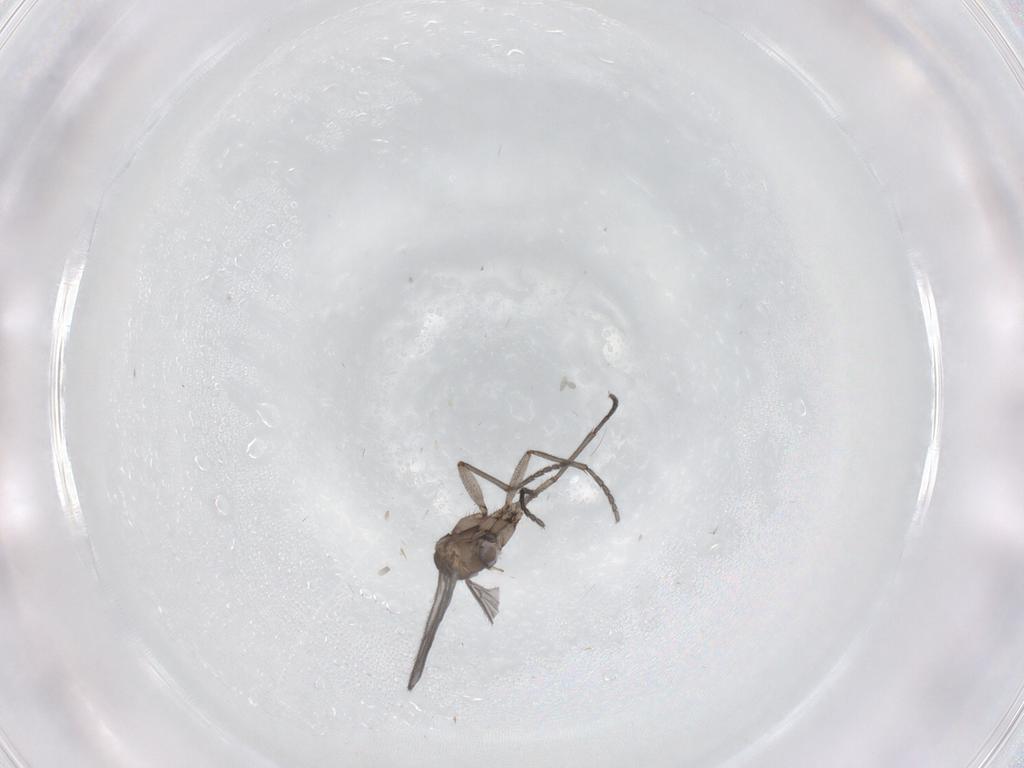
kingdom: Animalia
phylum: Arthropoda
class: Insecta
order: Diptera
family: Sciaridae
